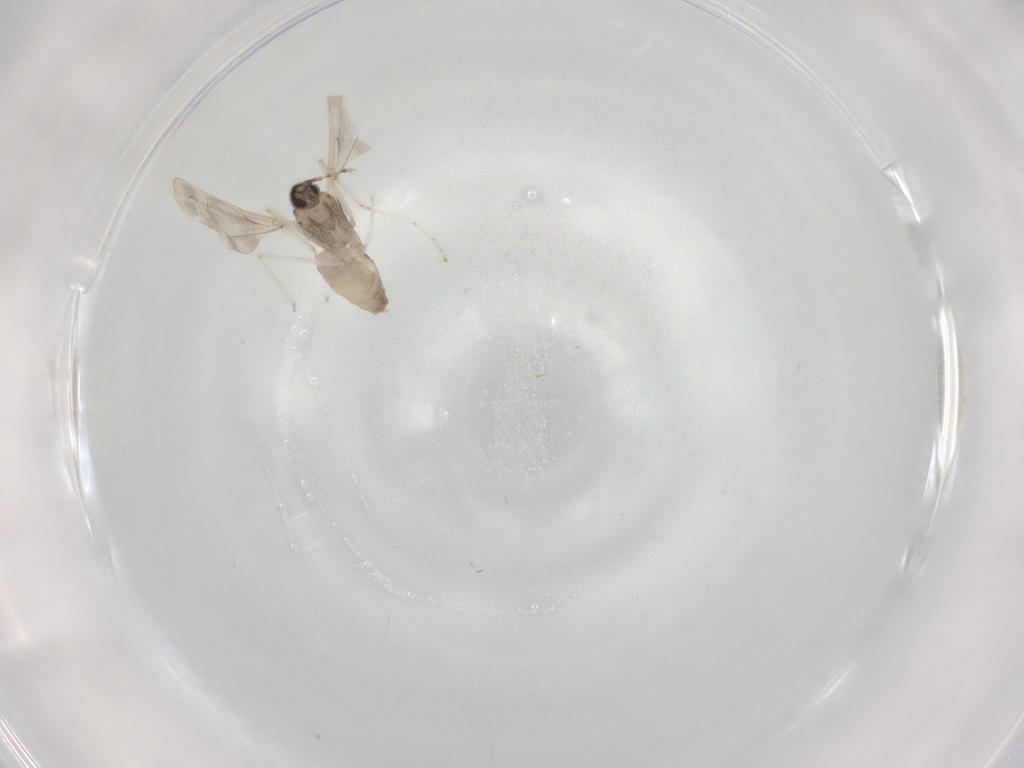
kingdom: Animalia
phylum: Arthropoda
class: Insecta
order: Diptera
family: Cecidomyiidae
